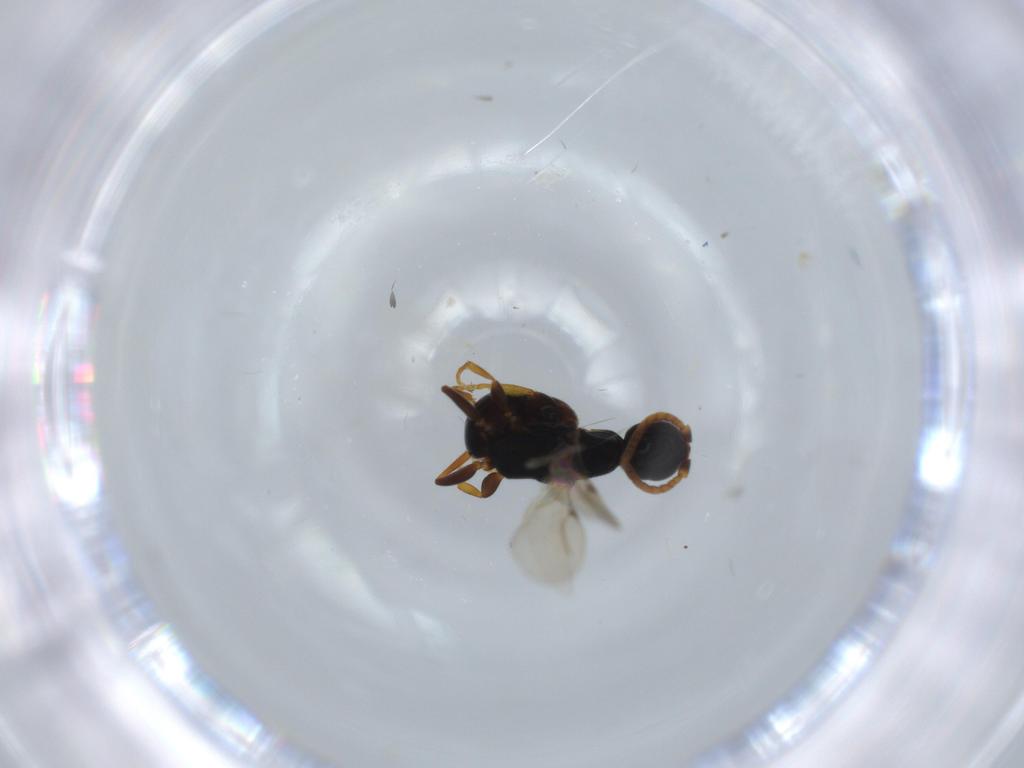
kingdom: Animalia
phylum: Arthropoda
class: Insecta
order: Hymenoptera
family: Bethylidae
